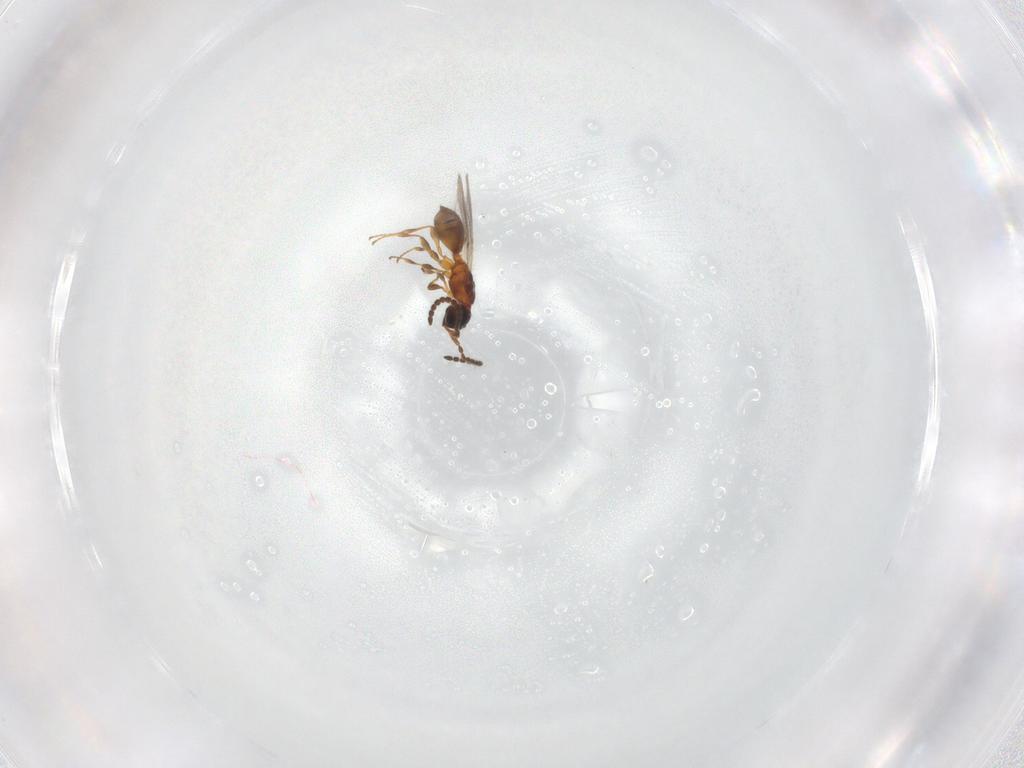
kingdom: Animalia
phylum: Arthropoda
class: Insecta
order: Hymenoptera
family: Diapriidae
